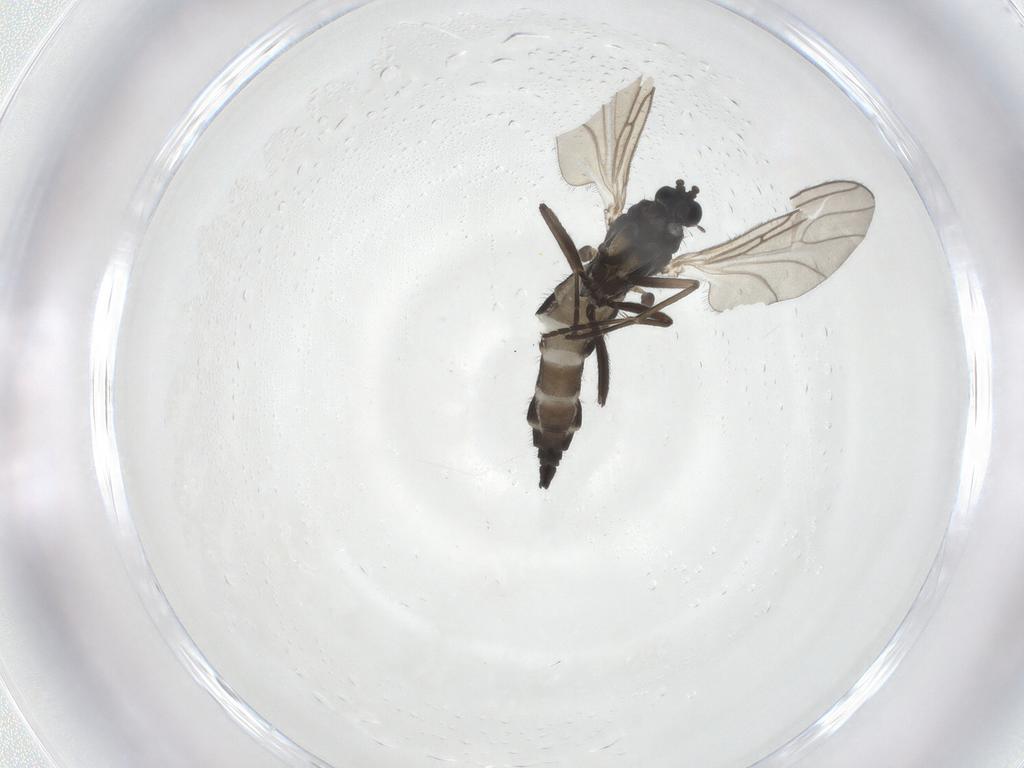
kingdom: Animalia
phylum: Arthropoda
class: Insecta
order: Diptera
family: Sciaridae
